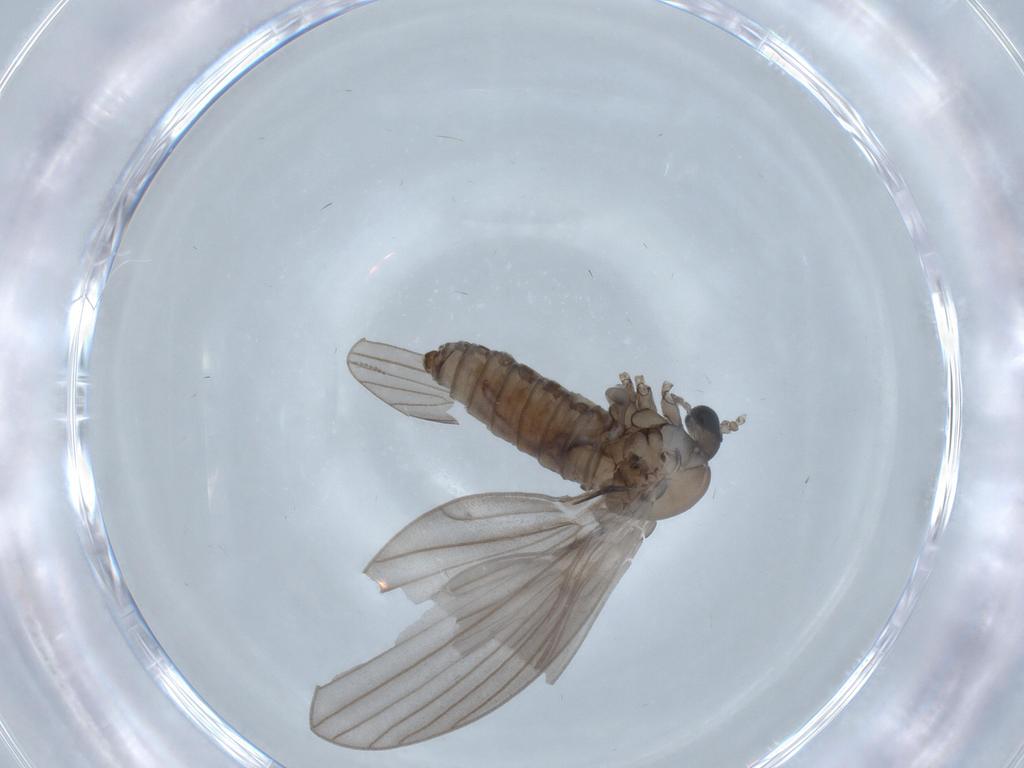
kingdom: Animalia
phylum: Arthropoda
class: Insecta
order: Diptera
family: Psychodidae
